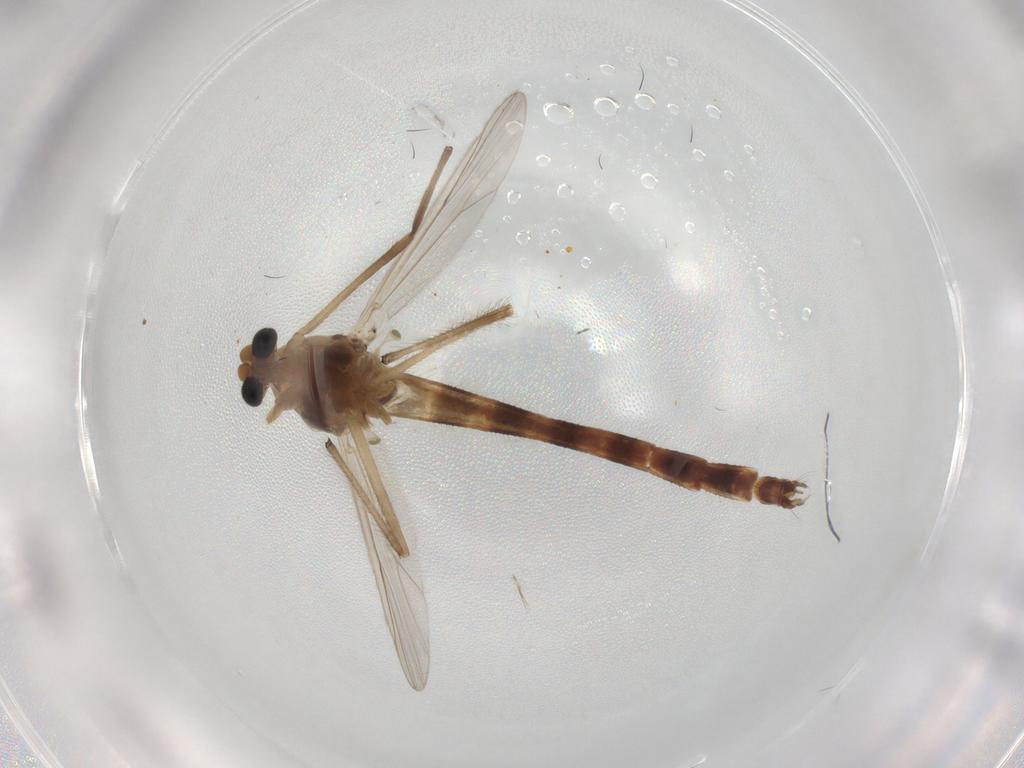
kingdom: Animalia
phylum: Arthropoda
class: Insecta
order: Diptera
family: Chironomidae
